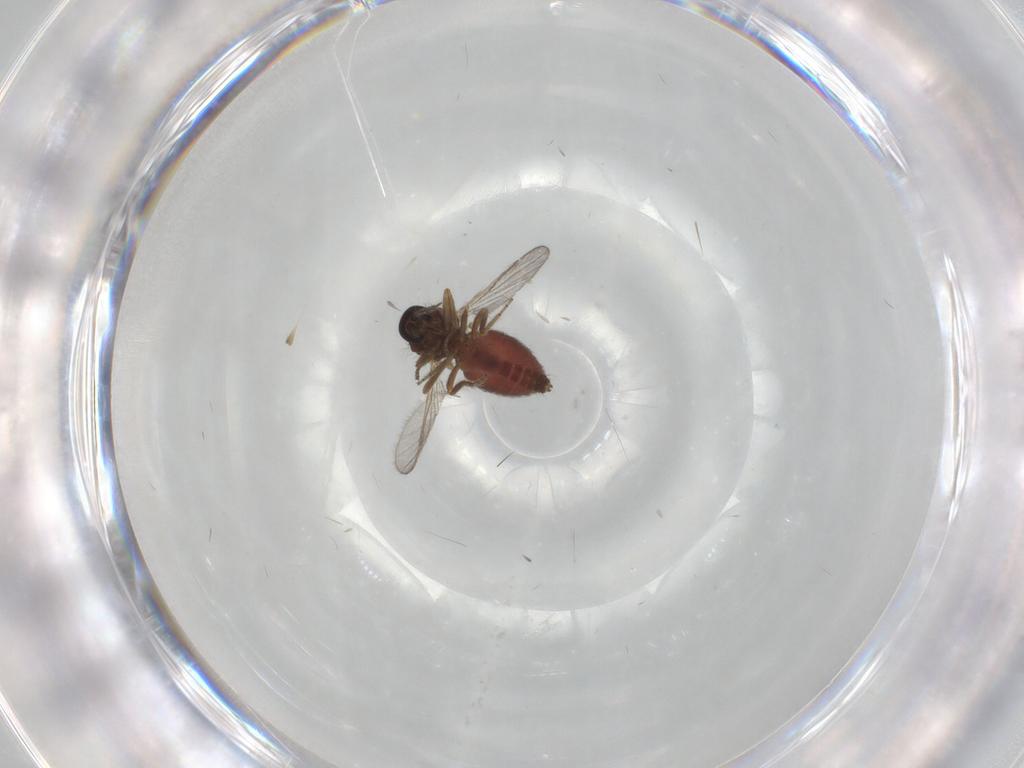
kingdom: Animalia
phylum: Arthropoda
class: Insecta
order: Diptera
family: Ceratopogonidae
